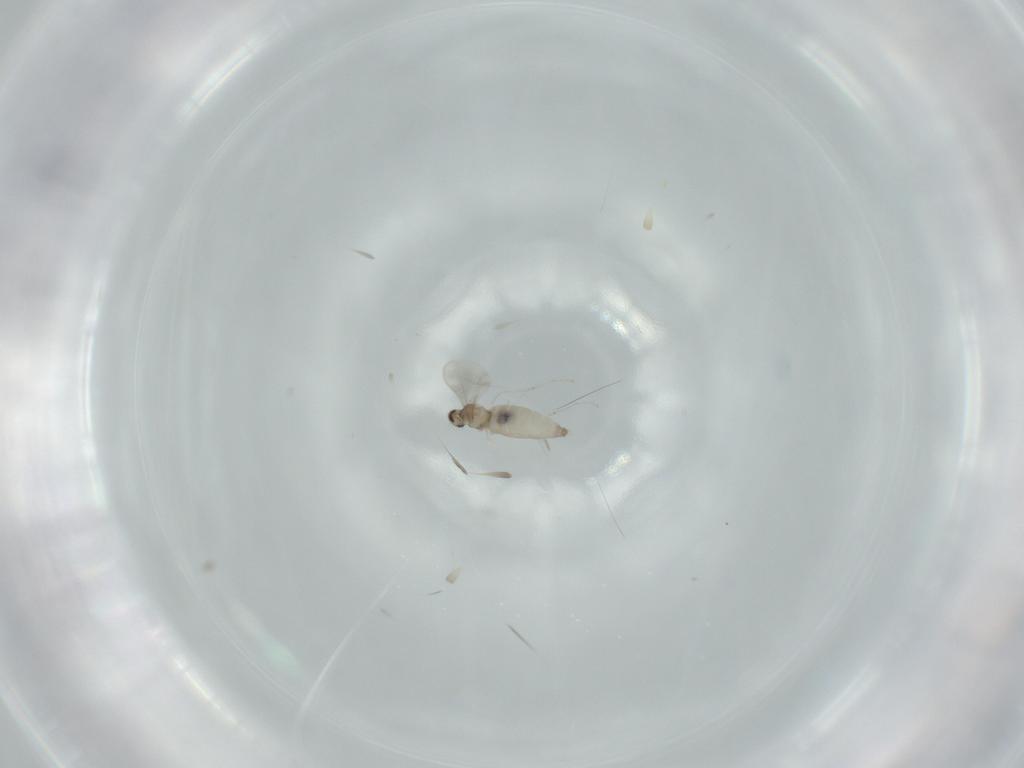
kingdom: Animalia
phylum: Arthropoda
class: Insecta
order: Diptera
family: Cecidomyiidae
